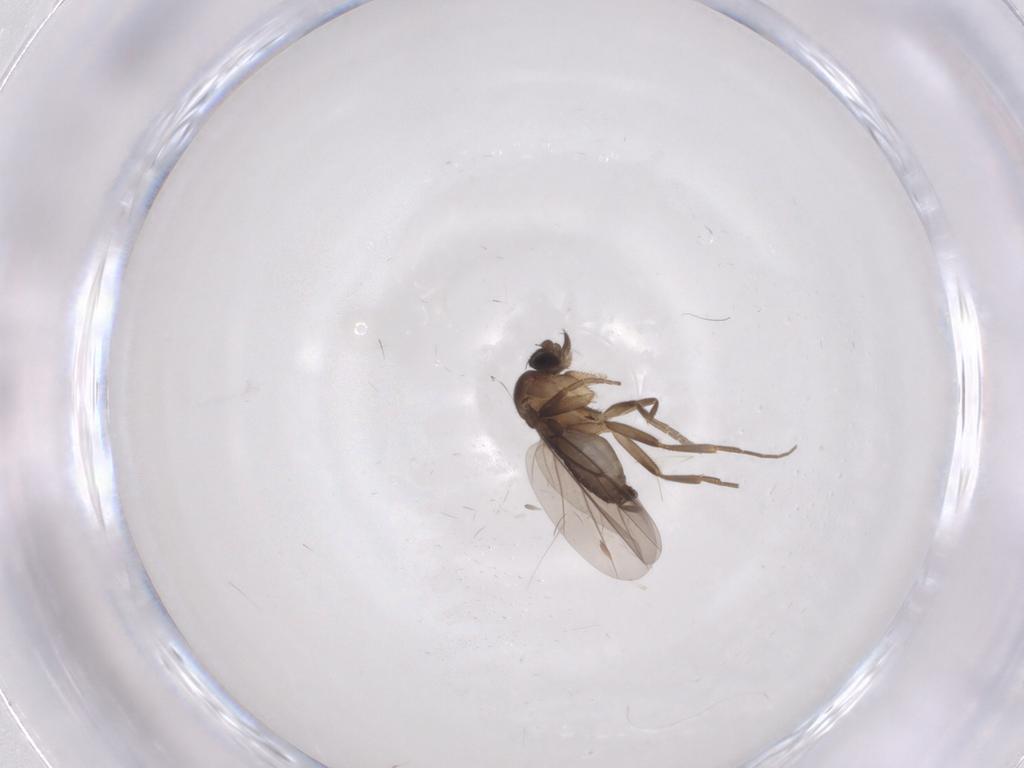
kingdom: Animalia
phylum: Arthropoda
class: Insecta
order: Diptera
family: Phoridae
